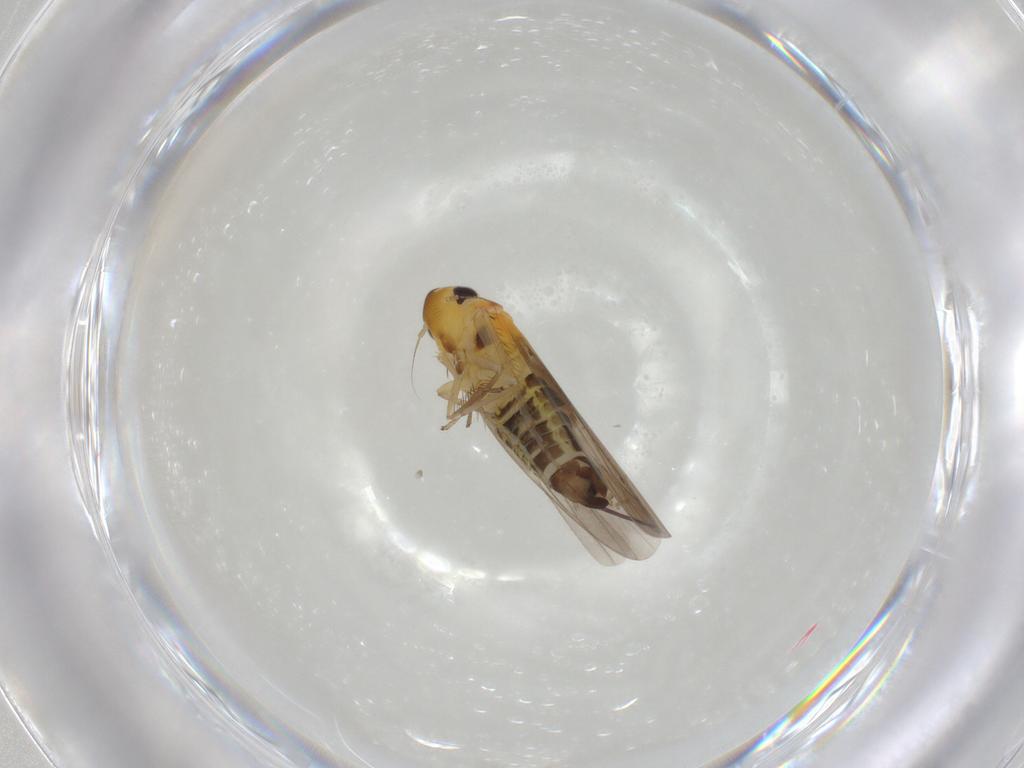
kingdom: Animalia
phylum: Arthropoda
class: Insecta
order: Hemiptera
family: Cicadellidae
